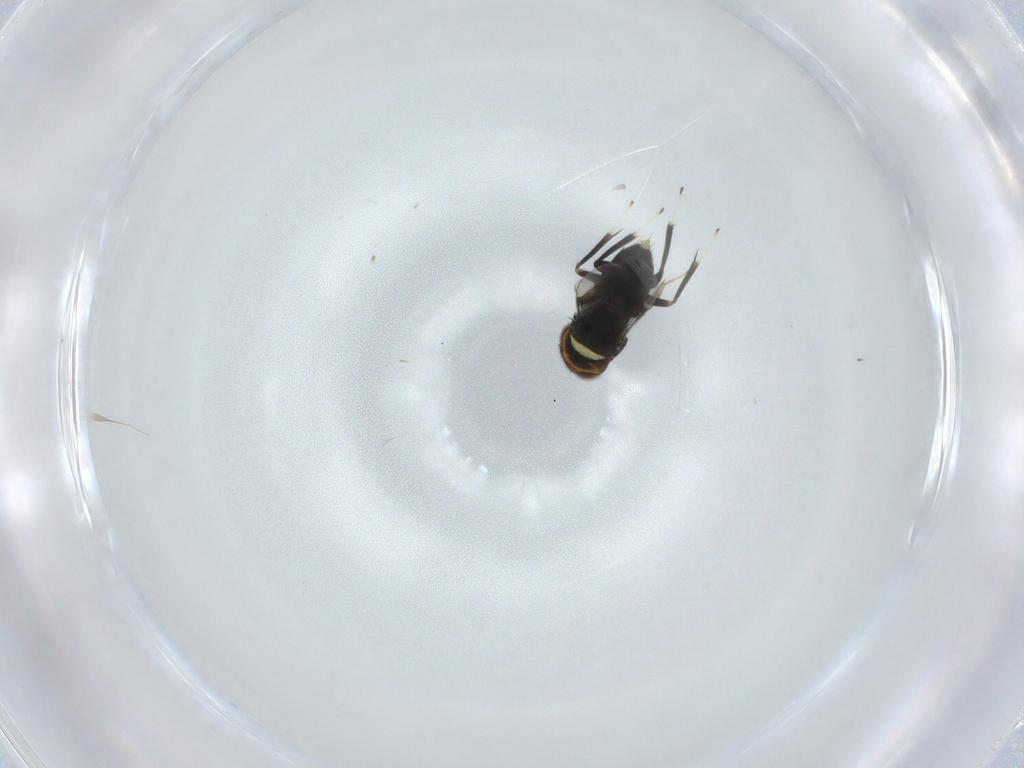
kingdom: Animalia
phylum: Arthropoda
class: Insecta
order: Hymenoptera
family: Aphelinidae
